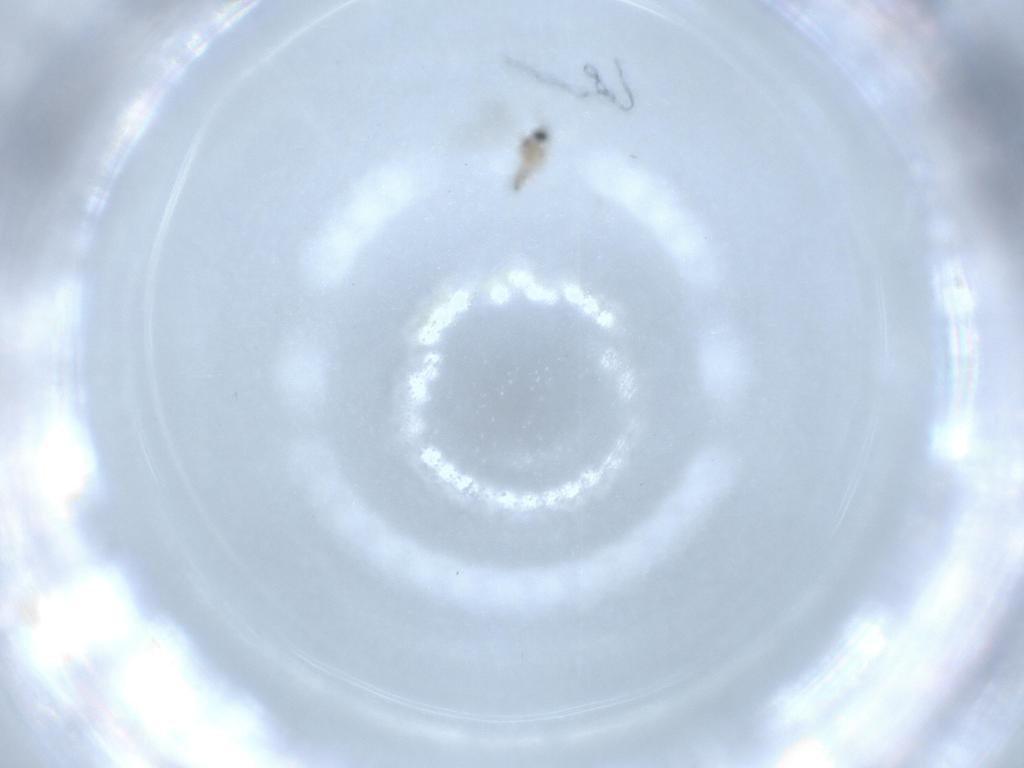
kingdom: Animalia
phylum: Arthropoda
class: Insecta
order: Diptera
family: Cecidomyiidae
